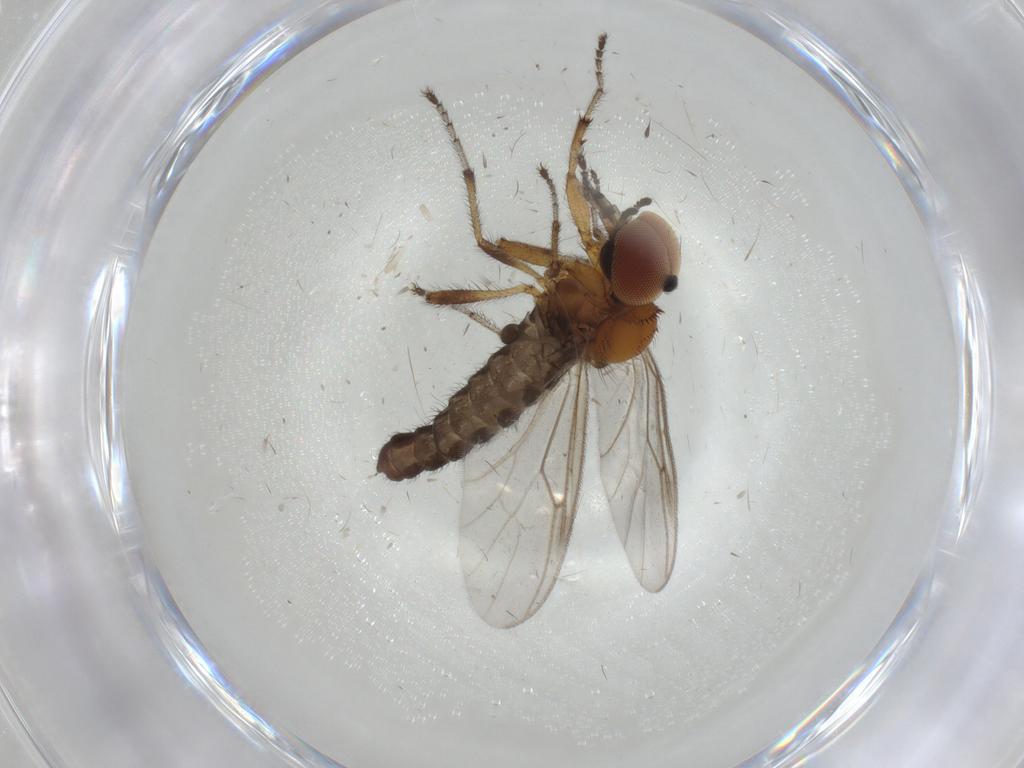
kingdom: Animalia
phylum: Arthropoda
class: Insecta
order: Diptera
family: Bibionidae
